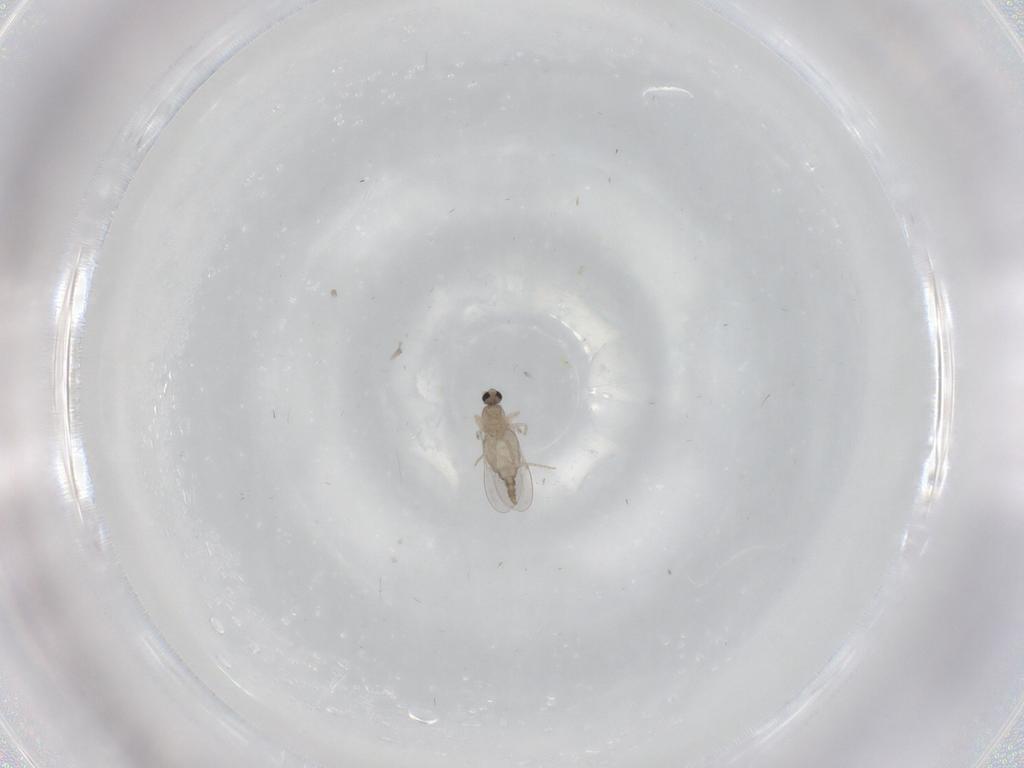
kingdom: Animalia
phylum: Arthropoda
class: Insecta
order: Diptera
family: Cecidomyiidae
